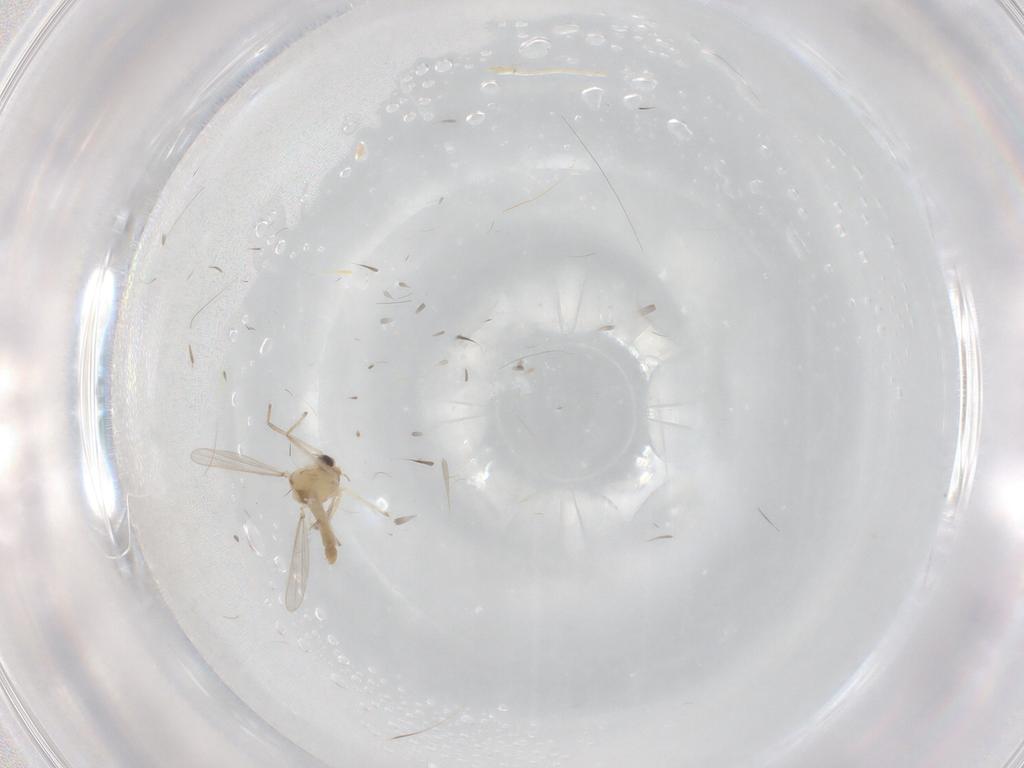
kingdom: Animalia
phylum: Arthropoda
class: Insecta
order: Diptera
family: Chironomidae
